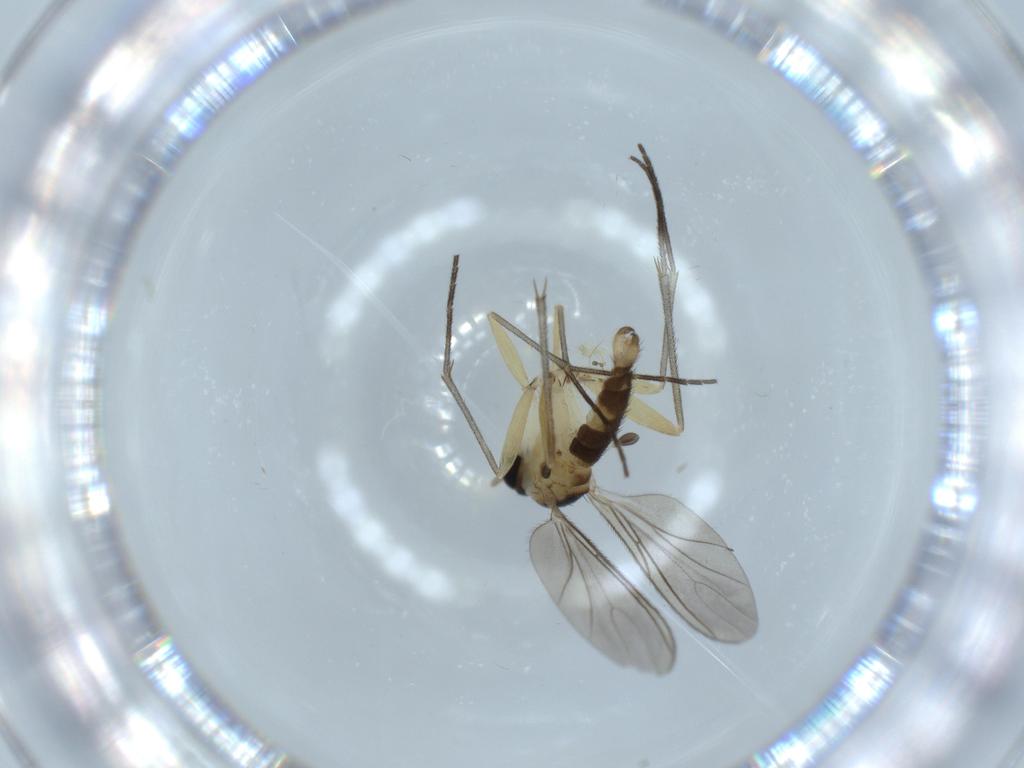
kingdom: Animalia
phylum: Arthropoda
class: Insecta
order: Diptera
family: Sciaridae
